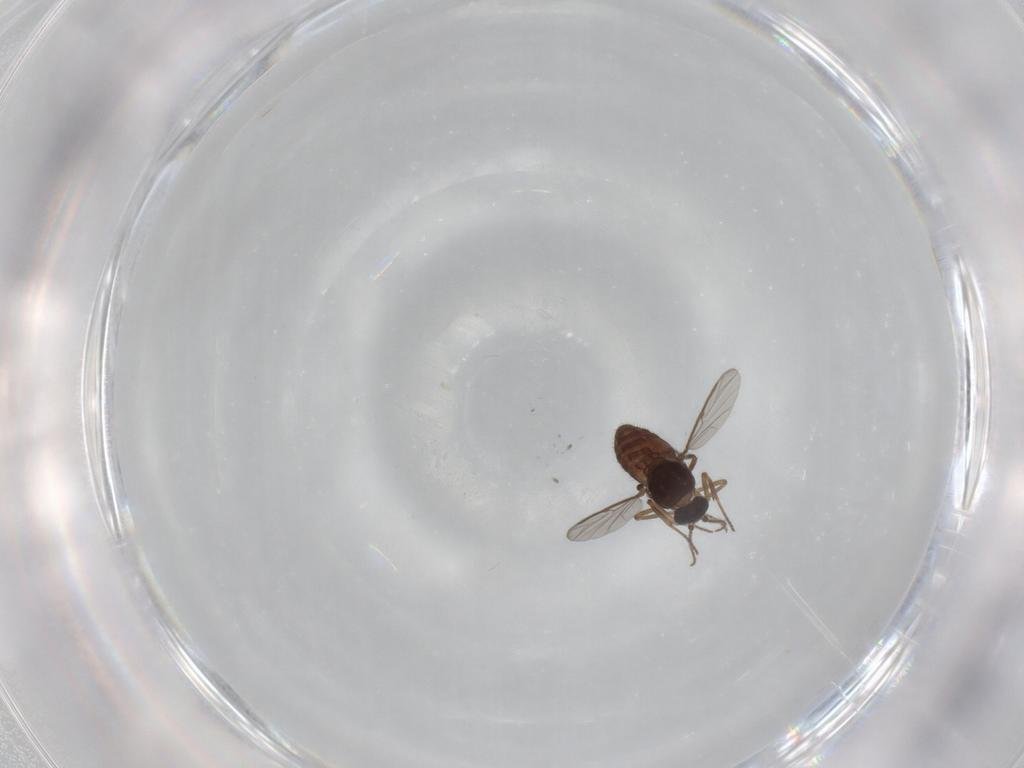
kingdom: Animalia
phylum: Arthropoda
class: Insecta
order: Diptera
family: Ceratopogonidae
